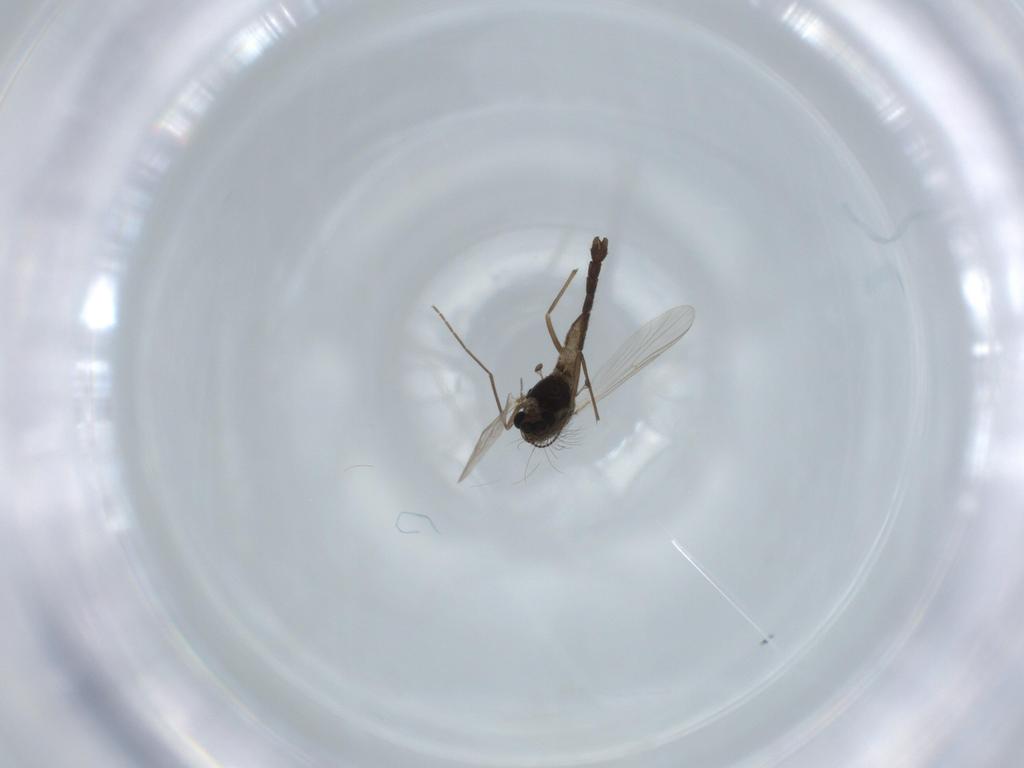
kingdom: Animalia
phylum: Arthropoda
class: Insecta
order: Diptera
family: Chironomidae
